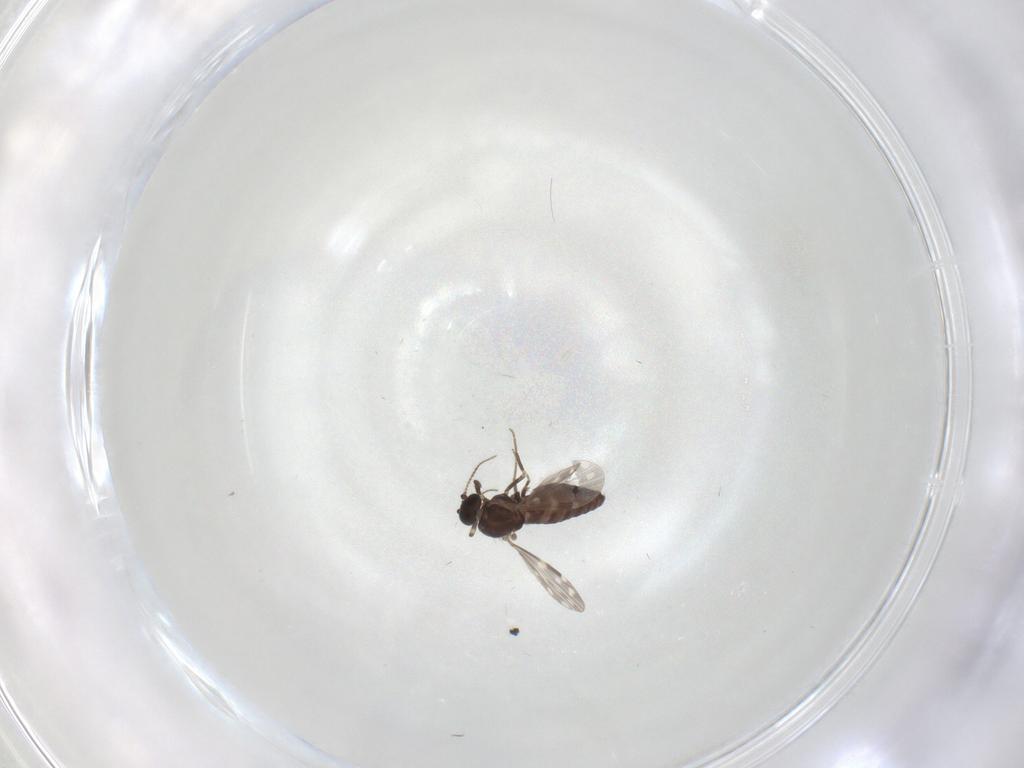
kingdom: Animalia
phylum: Arthropoda
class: Insecta
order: Diptera
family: Ceratopogonidae
